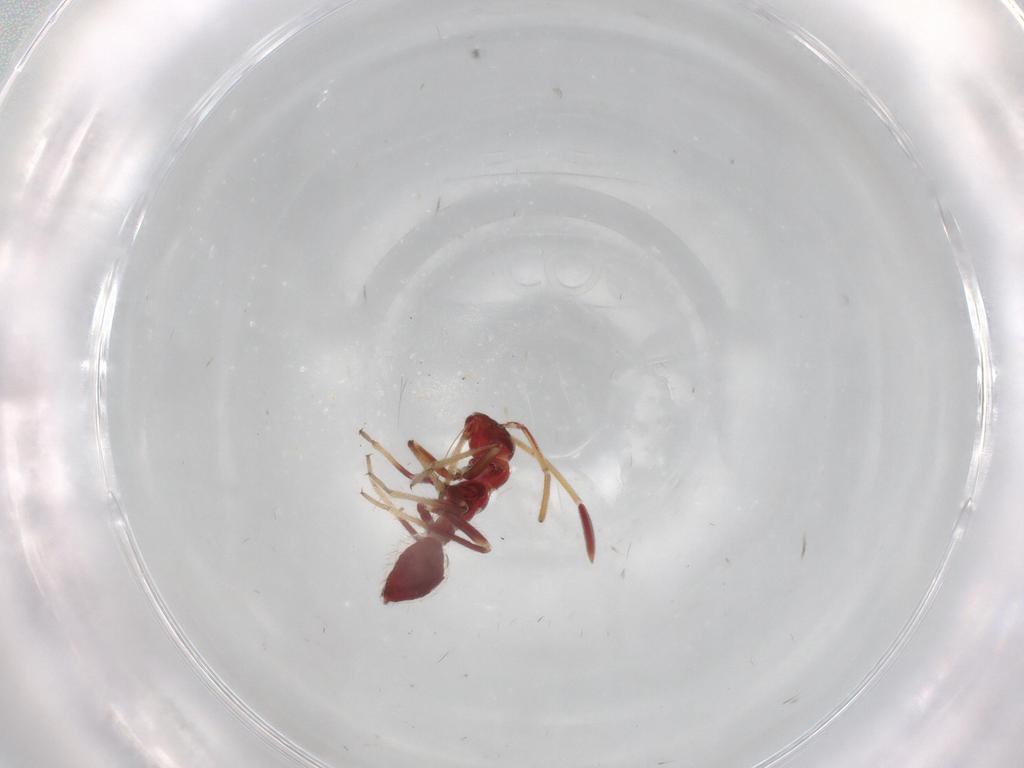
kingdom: Animalia
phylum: Arthropoda
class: Insecta
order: Hemiptera
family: Miridae
